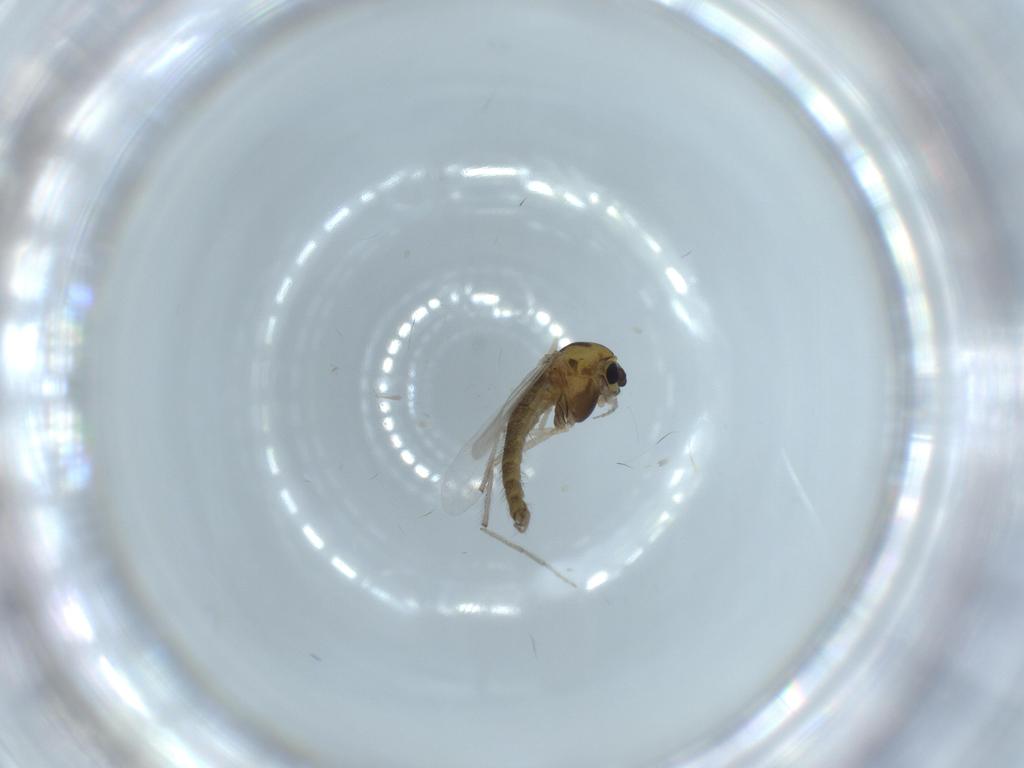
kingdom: Animalia
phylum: Arthropoda
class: Insecta
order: Diptera
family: Chironomidae
